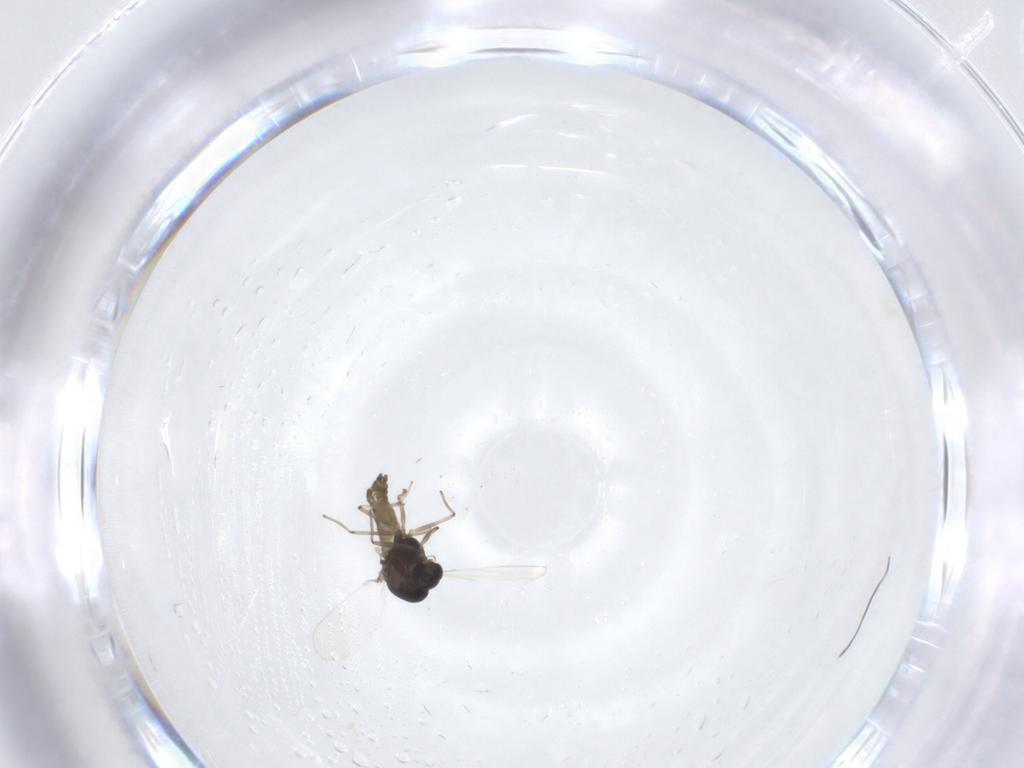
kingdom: Animalia
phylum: Arthropoda
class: Insecta
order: Diptera
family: Chironomidae
